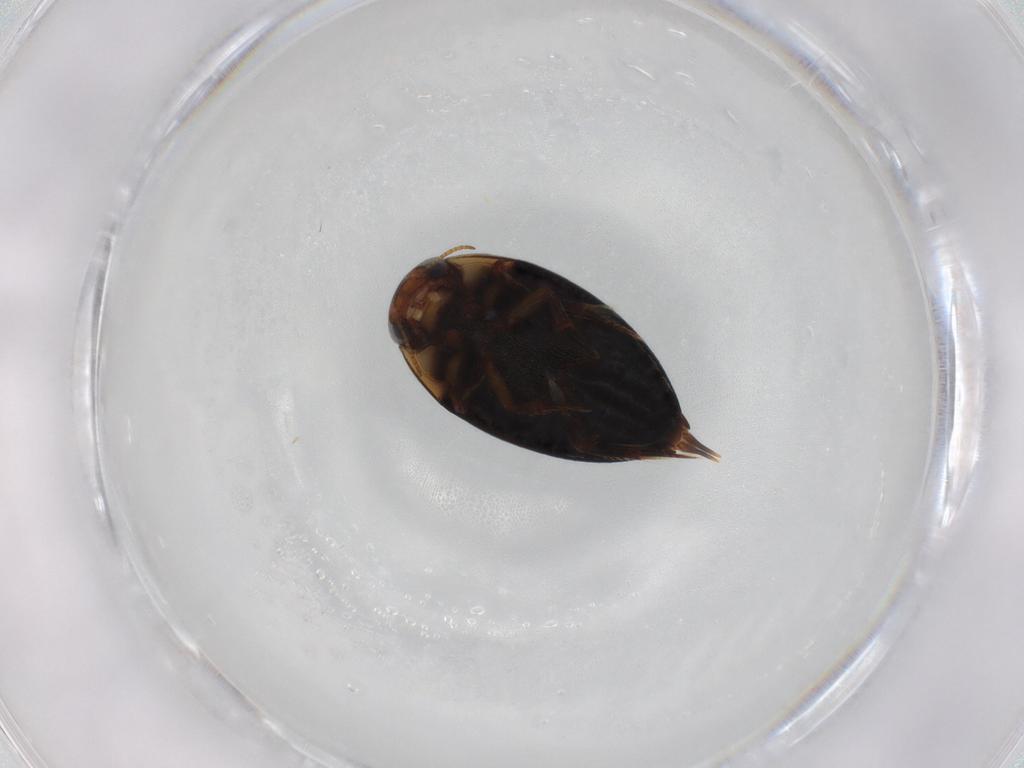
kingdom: Animalia
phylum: Arthropoda
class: Insecta
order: Coleoptera
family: Noteridae
